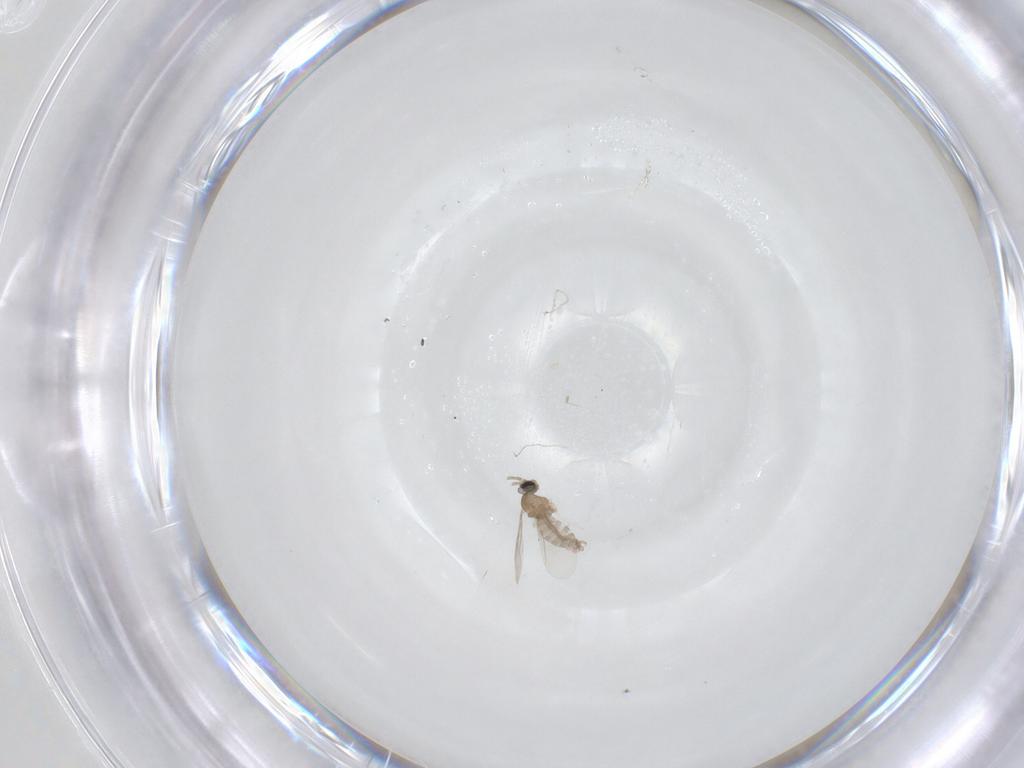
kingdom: Animalia
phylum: Arthropoda
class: Insecta
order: Diptera
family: Cecidomyiidae
